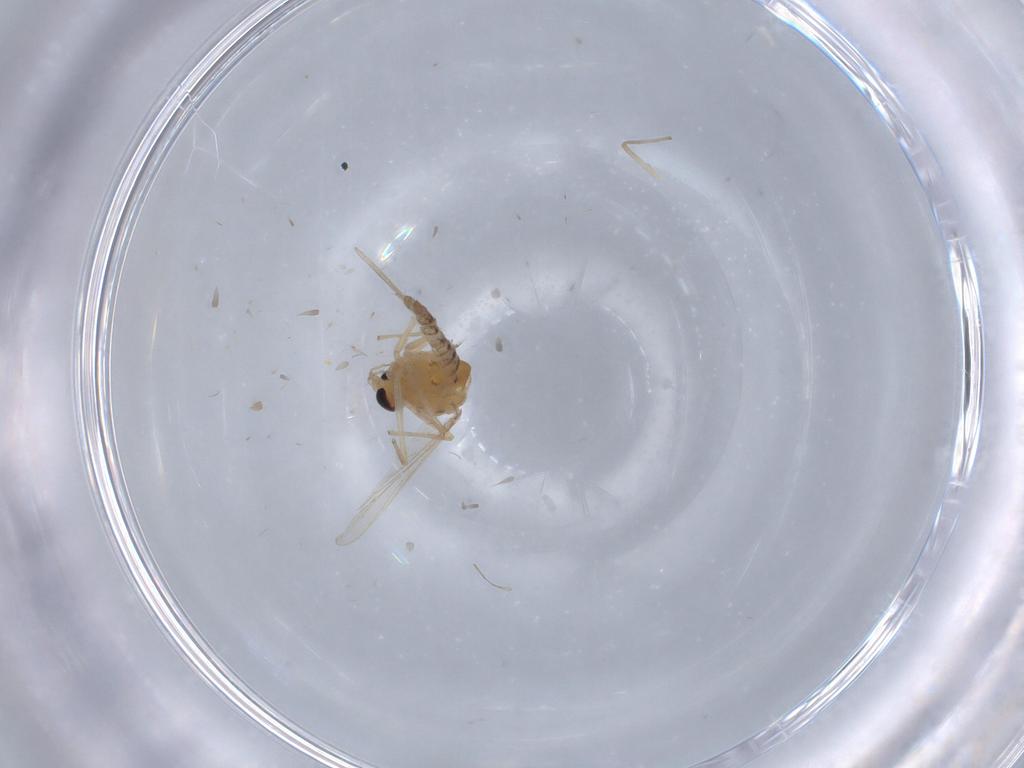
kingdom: Animalia
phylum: Arthropoda
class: Insecta
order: Diptera
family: Chironomidae
